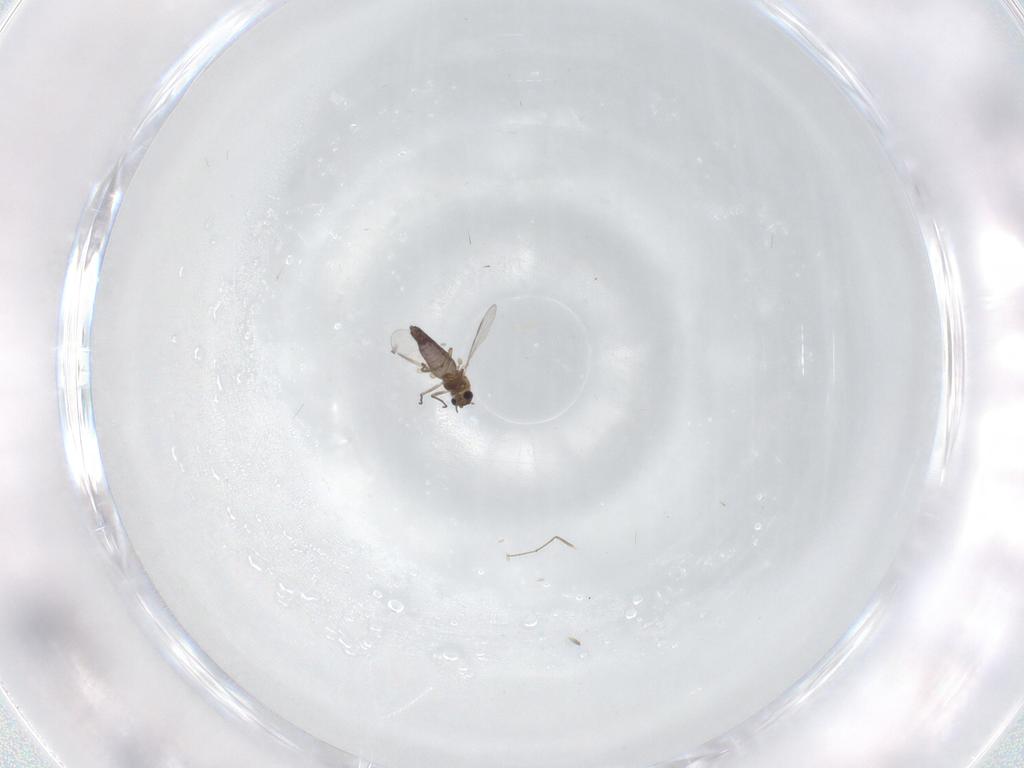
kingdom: Animalia
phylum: Arthropoda
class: Insecta
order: Diptera
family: Chironomidae
